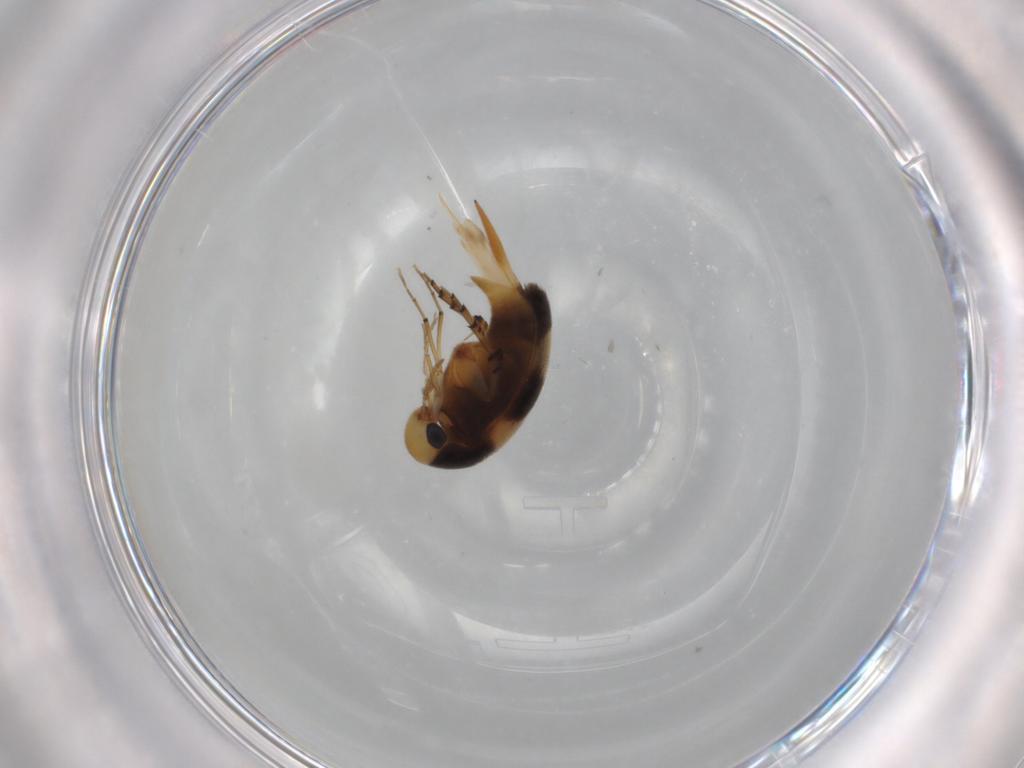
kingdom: Animalia
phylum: Arthropoda
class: Insecta
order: Coleoptera
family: Mordellidae
